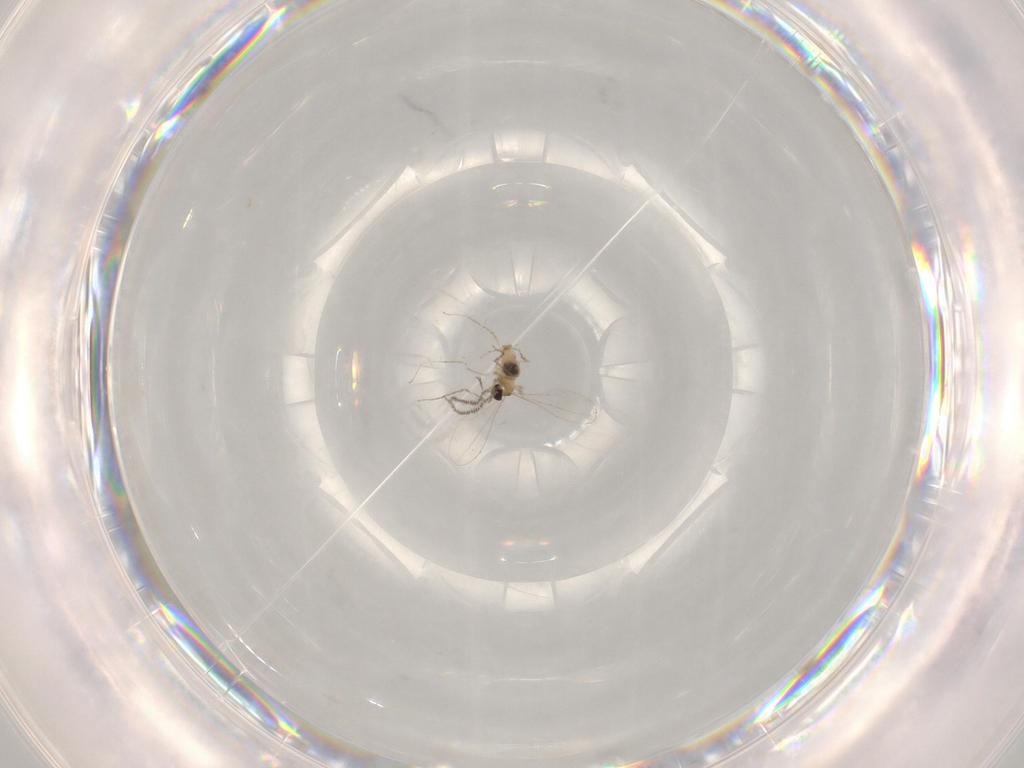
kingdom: Animalia
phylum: Arthropoda
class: Insecta
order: Diptera
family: Cecidomyiidae
